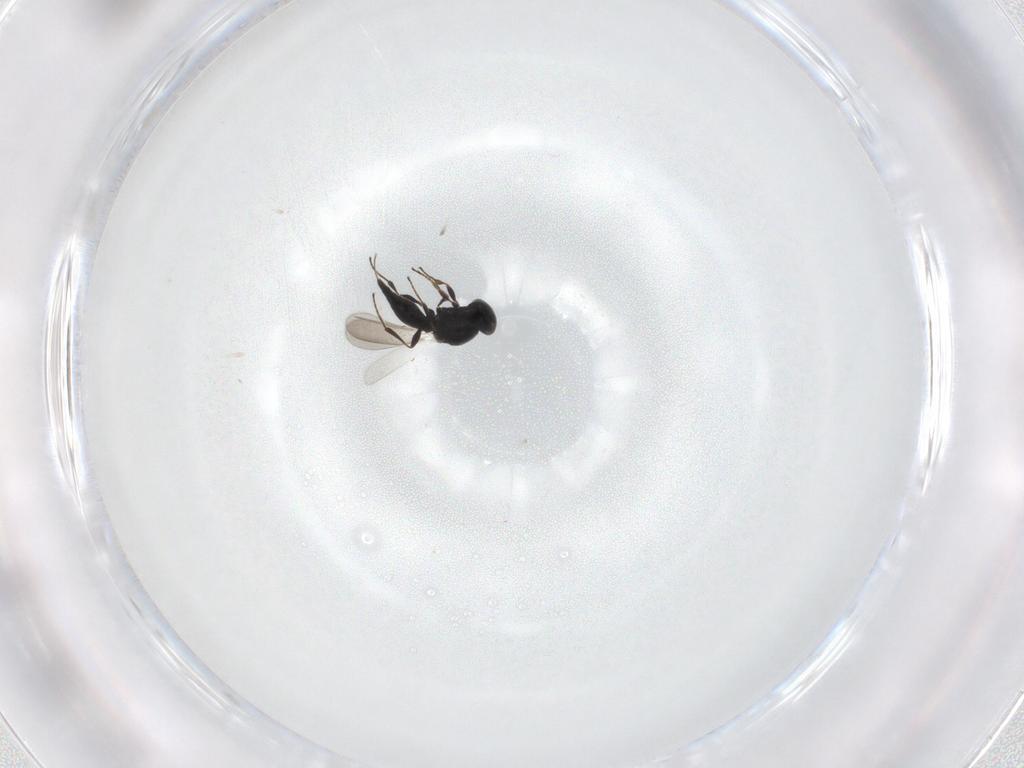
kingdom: Animalia
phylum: Arthropoda
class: Insecta
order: Hymenoptera
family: Platygastridae
